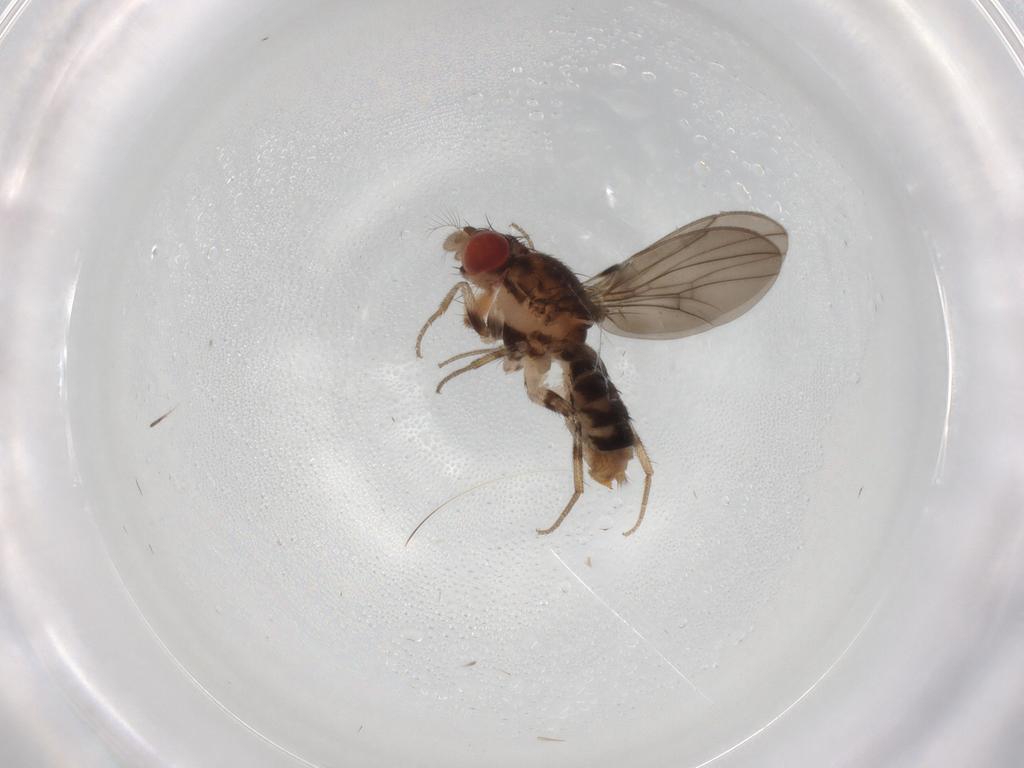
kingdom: Animalia
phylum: Arthropoda
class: Insecta
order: Diptera
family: Drosophilidae
